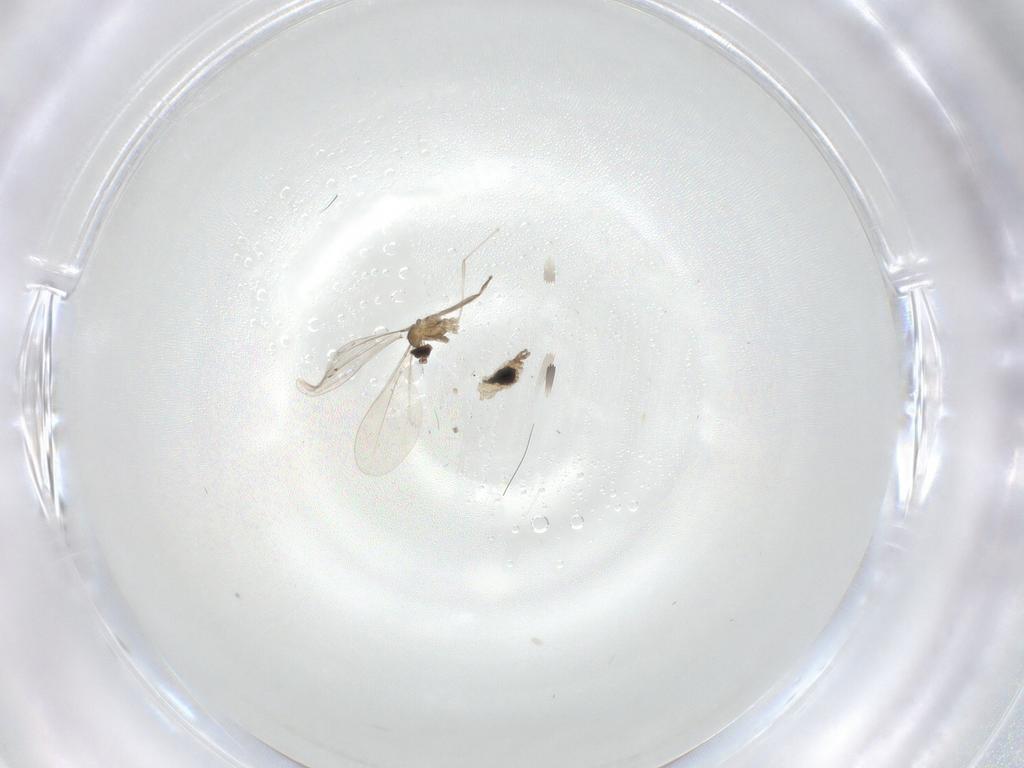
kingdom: Animalia
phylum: Arthropoda
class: Insecta
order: Diptera
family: Cecidomyiidae
